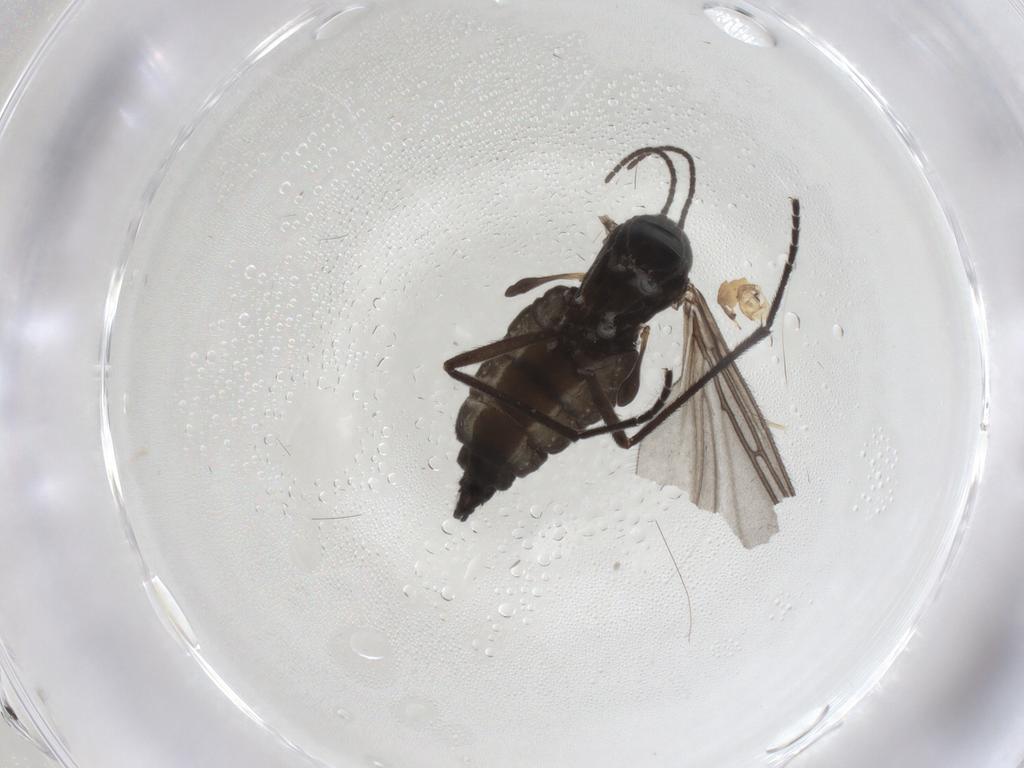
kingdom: Animalia
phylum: Arthropoda
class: Insecta
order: Diptera
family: Sciaridae
